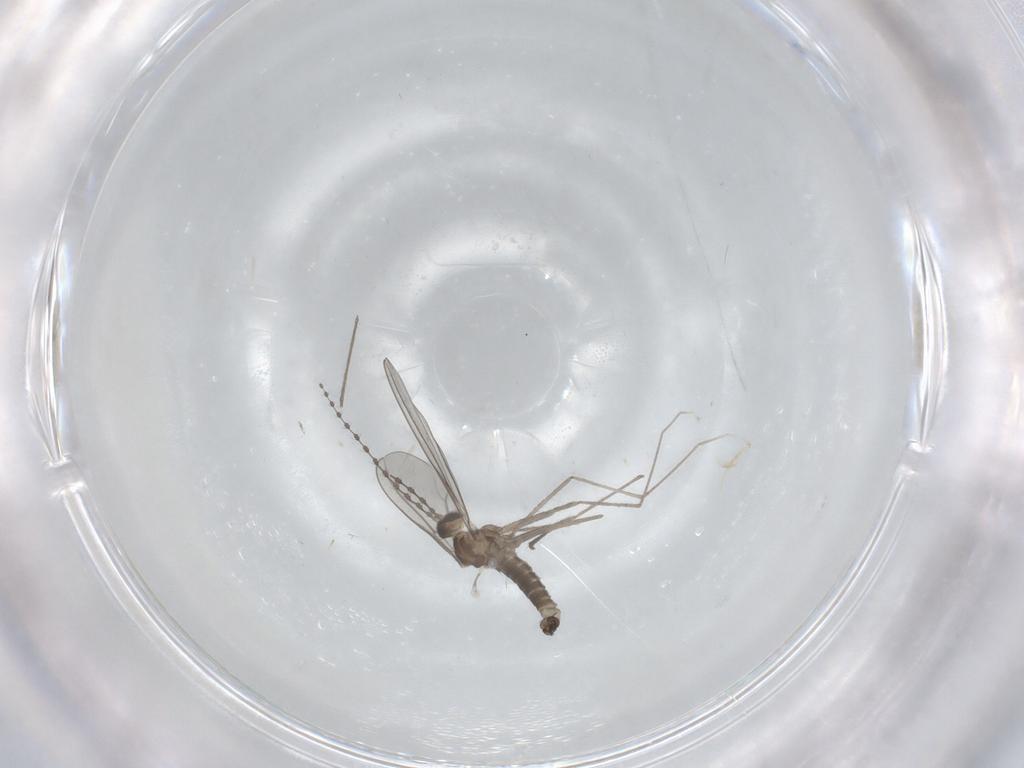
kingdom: Animalia
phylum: Arthropoda
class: Insecta
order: Diptera
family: Cecidomyiidae
